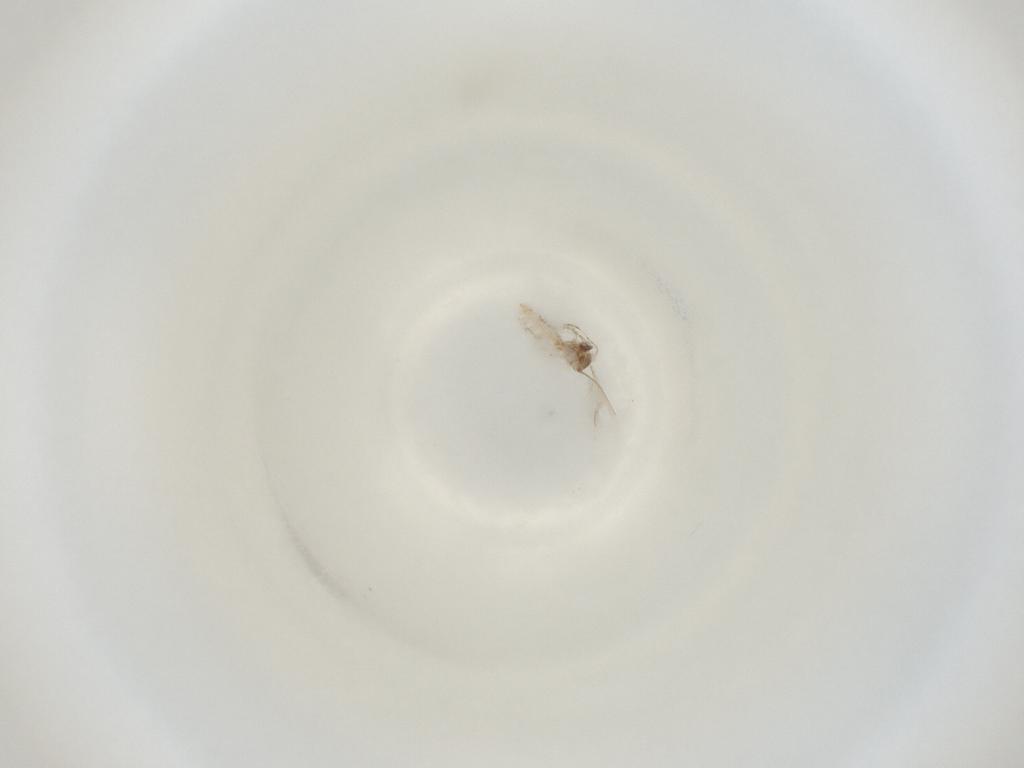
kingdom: Animalia
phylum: Arthropoda
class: Insecta
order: Diptera
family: Cecidomyiidae
